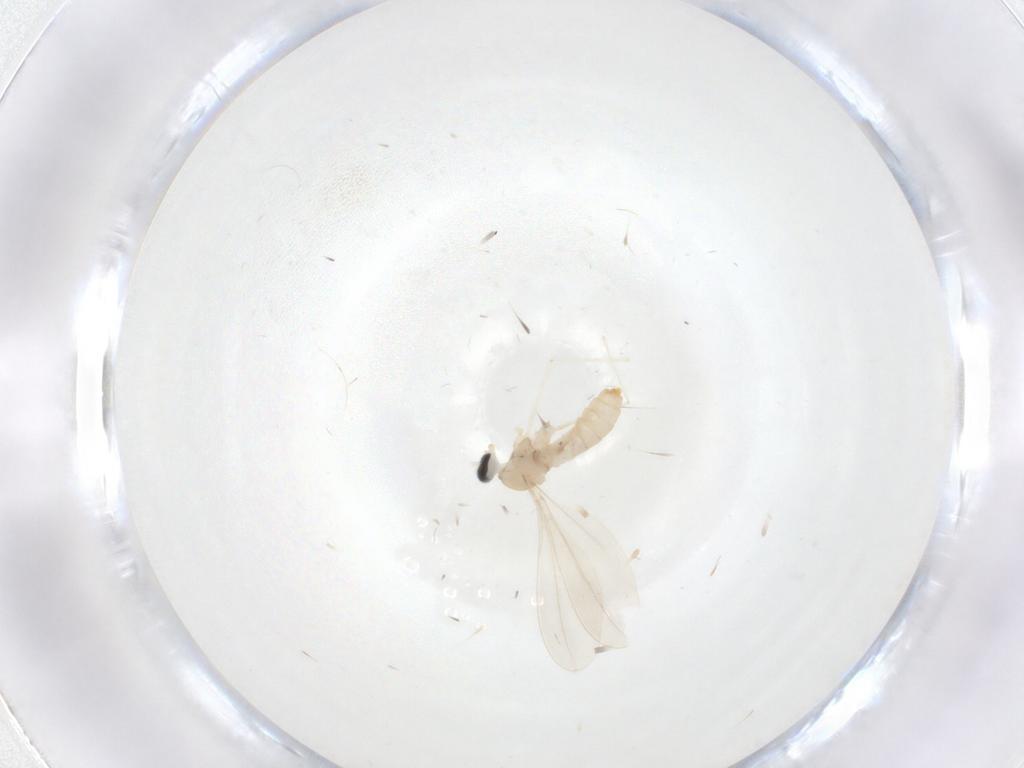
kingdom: Animalia
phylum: Arthropoda
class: Insecta
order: Diptera
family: Cecidomyiidae
